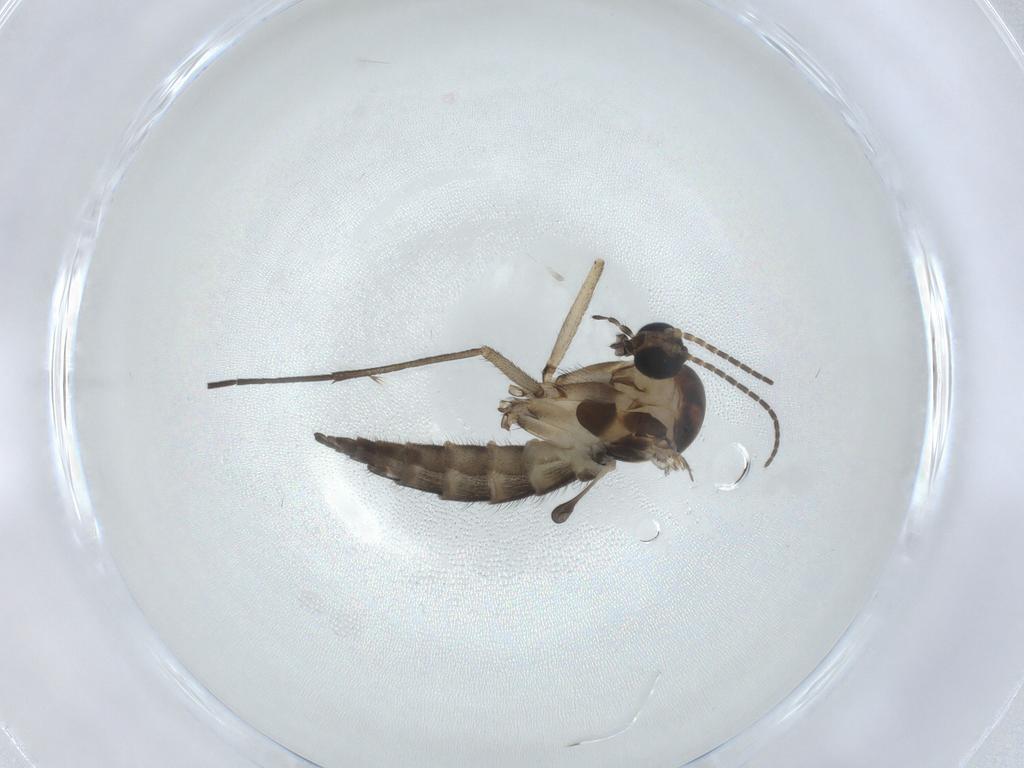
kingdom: Animalia
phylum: Arthropoda
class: Insecta
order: Diptera
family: Sciaridae
